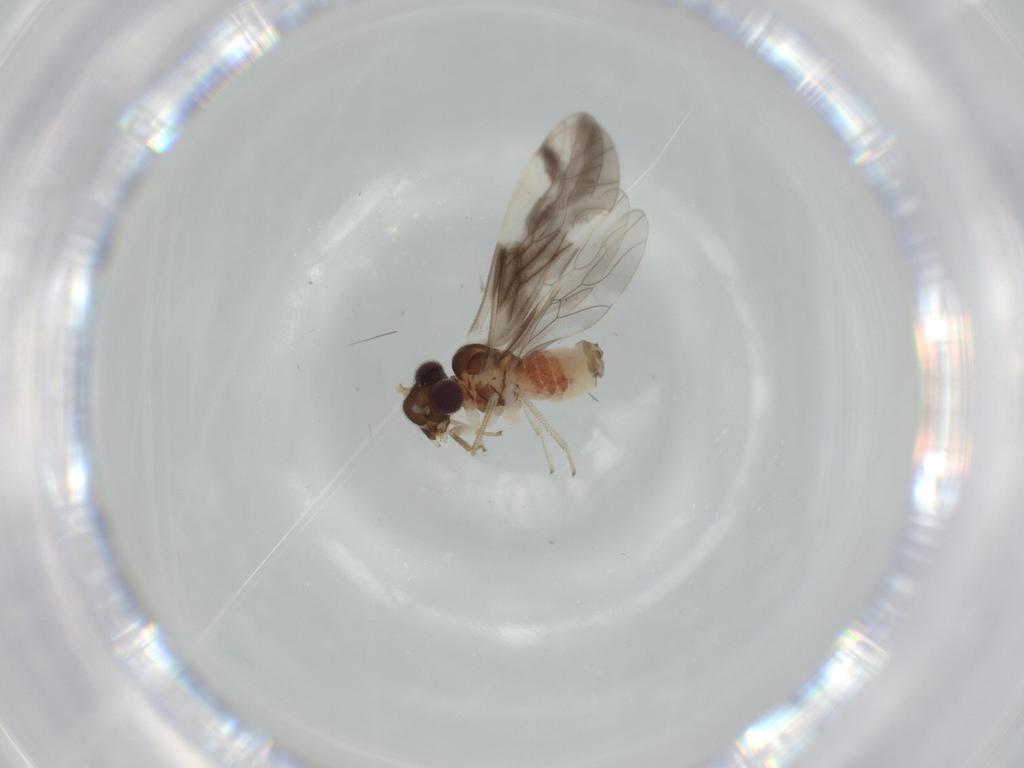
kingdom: Animalia
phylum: Arthropoda
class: Insecta
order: Psocodea
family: Caeciliusidae
